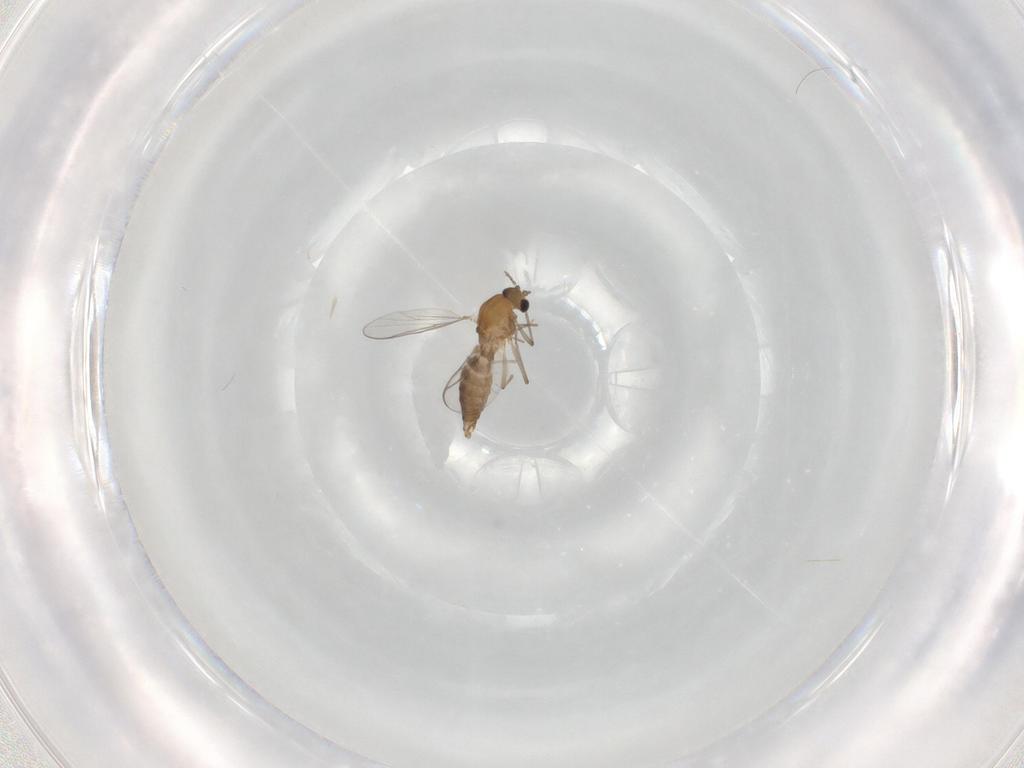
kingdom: Animalia
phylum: Arthropoda
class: Insecta
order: Diptera
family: Chironomidae
